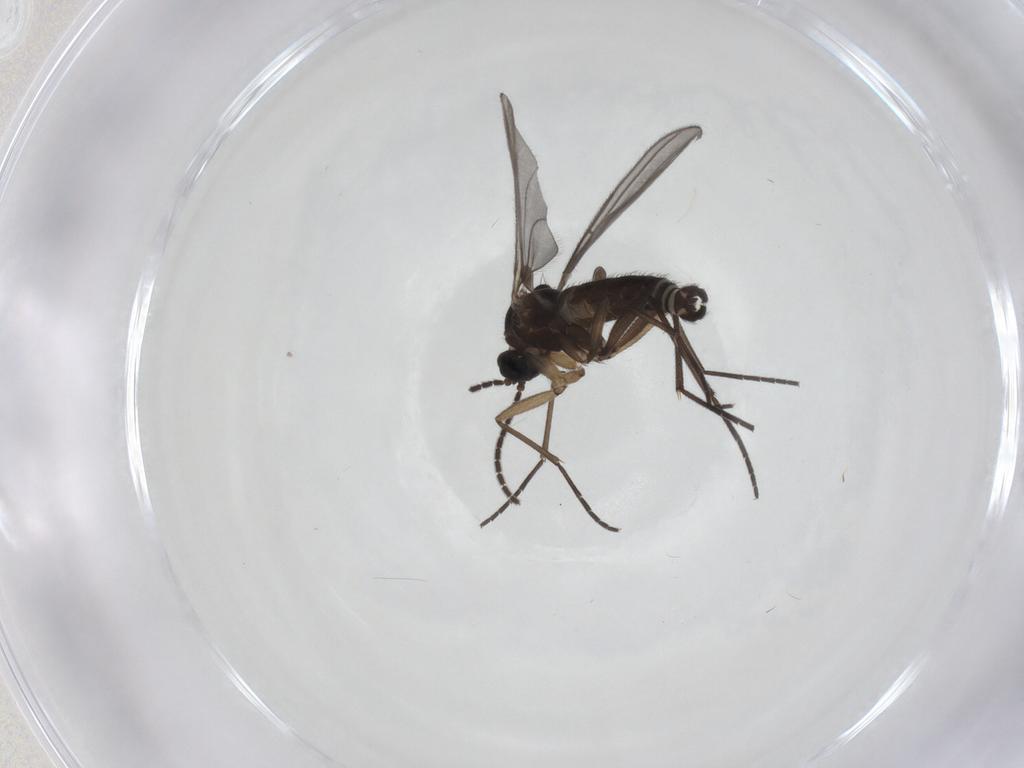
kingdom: Animalia
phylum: Arthropoda
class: Insecta
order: Diptera
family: Sciaridae
